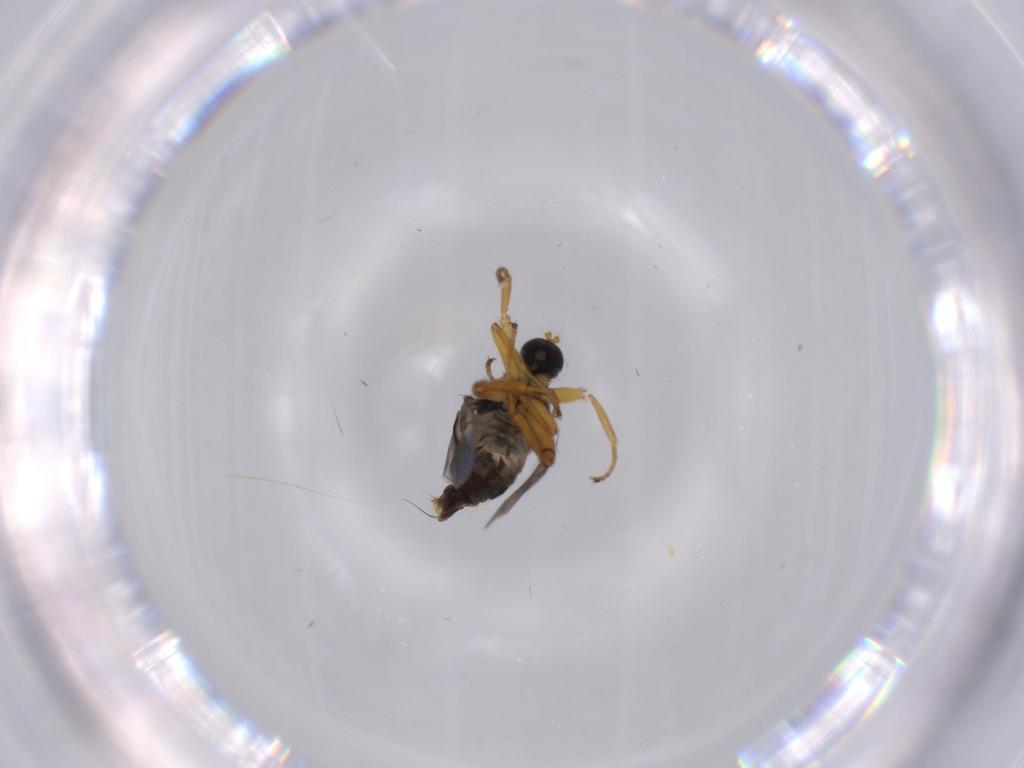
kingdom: Animalia
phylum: Arthropoda
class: Insecta
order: Diptera
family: Hybotidae
